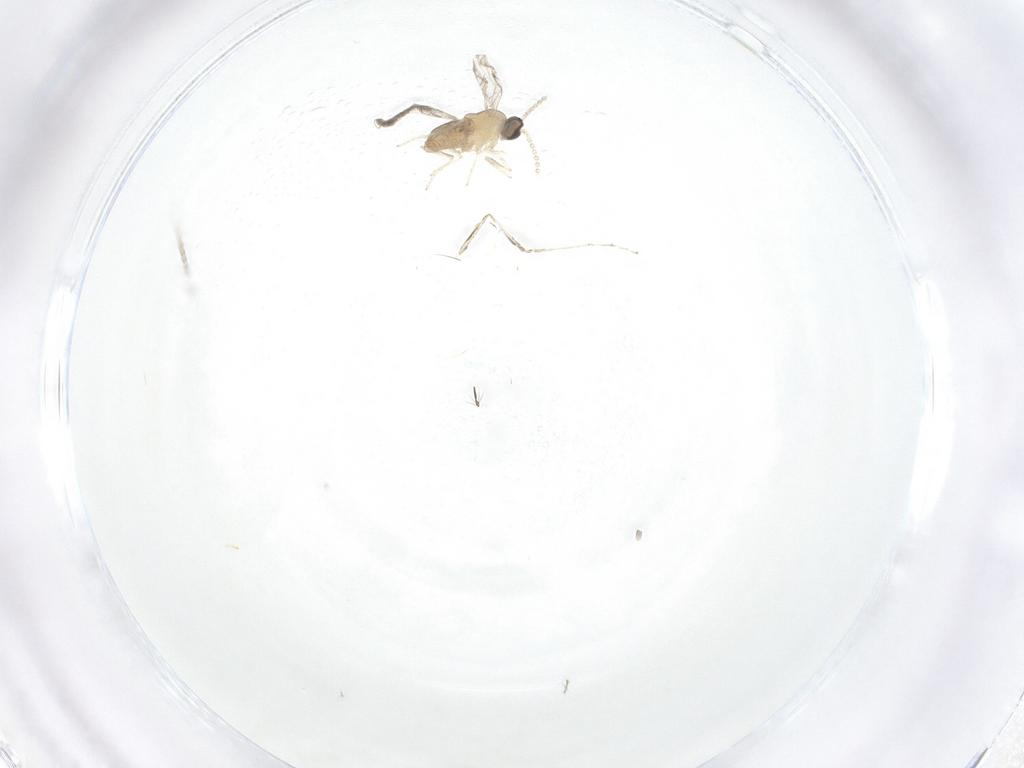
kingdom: Animalia
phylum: Arthropoda
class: Insecta
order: Diptera
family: Cecidomyiidae
